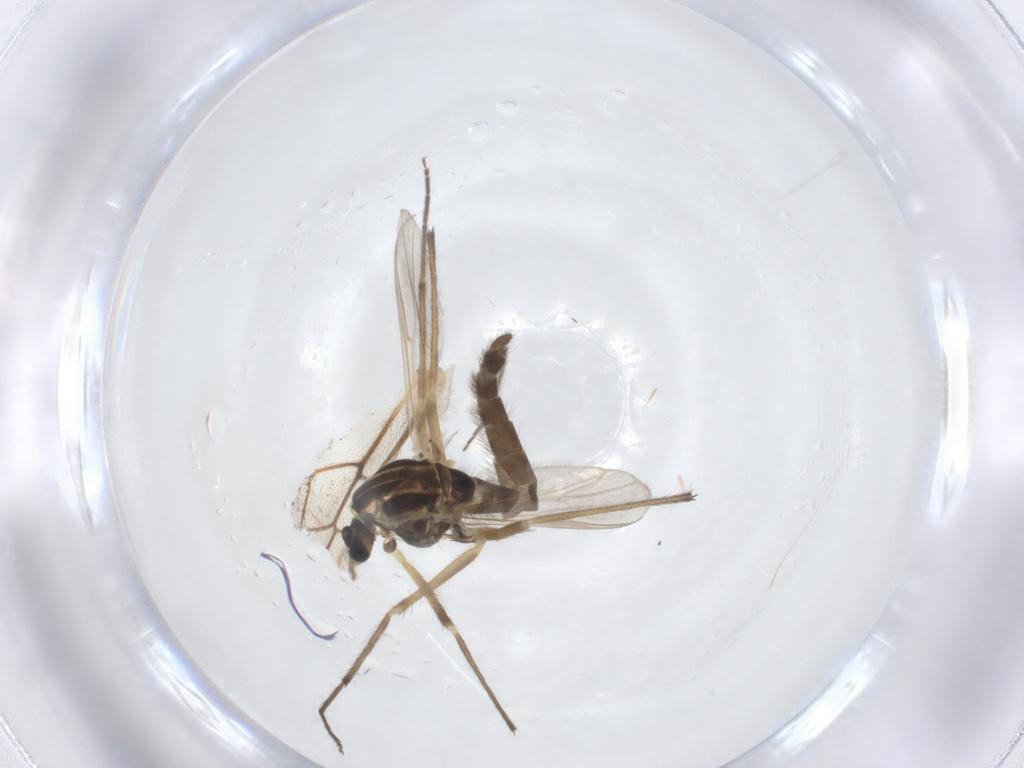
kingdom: Animalia
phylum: Arthropoda
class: Insecta
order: Diptera
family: Chironomidae
